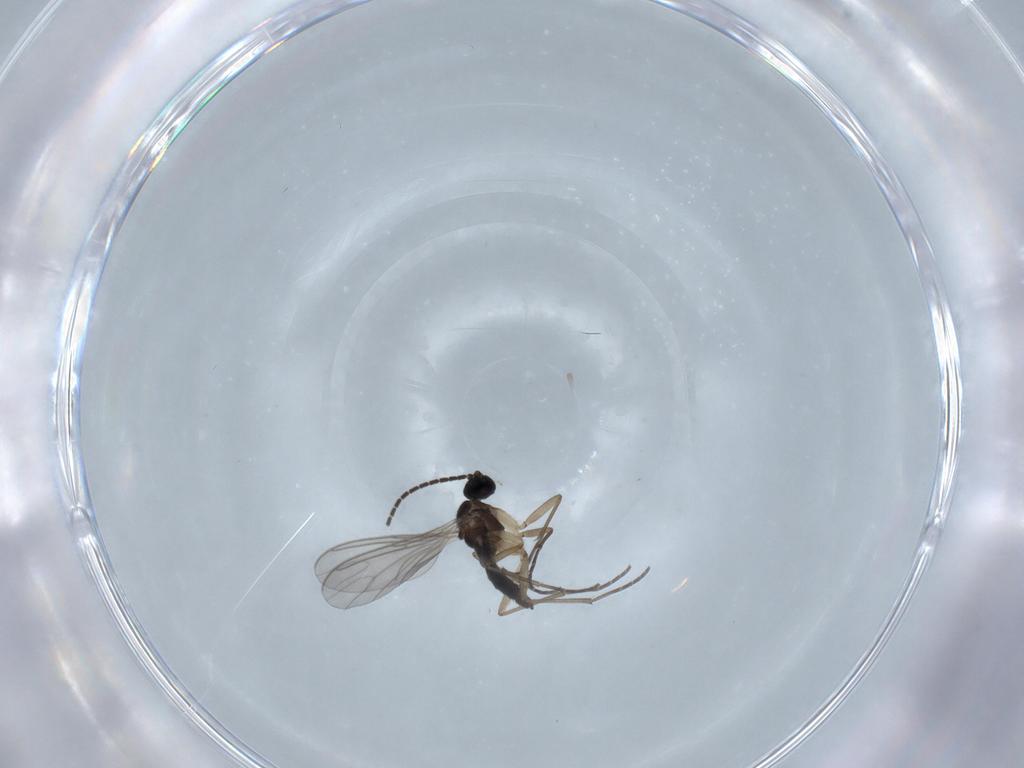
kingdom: Animalia
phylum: Arthropoda
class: Insecta
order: Diptera
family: Sciaridae
